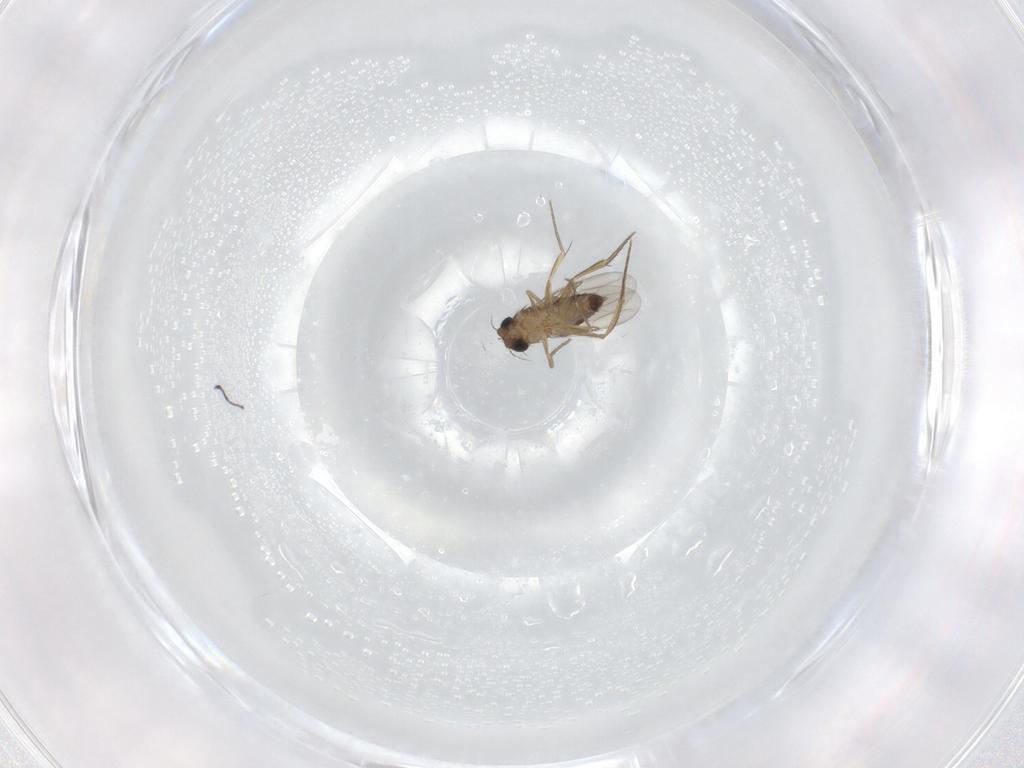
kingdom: Animalia
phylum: Arthropoda
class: Insecta
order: Diptera
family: Phoridae
